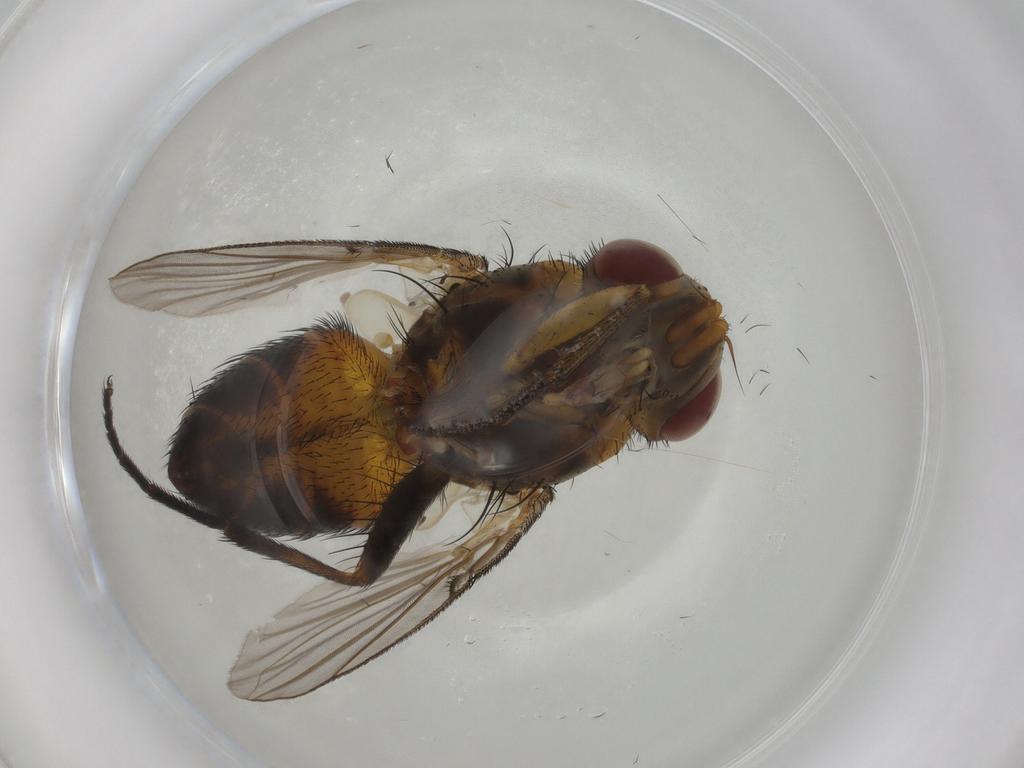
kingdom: Animalia
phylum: Arthropoda
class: Insecta
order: Diptera
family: Muscidae
